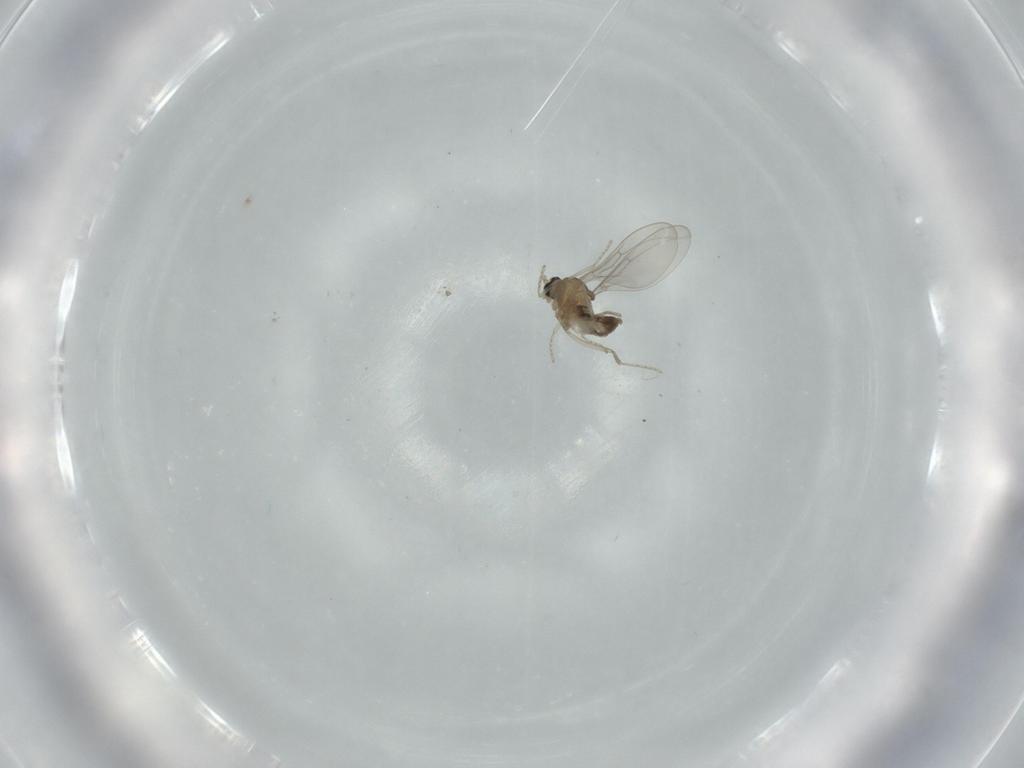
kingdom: Animalia
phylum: Arthropoda
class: Insecta
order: Diptera
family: Cecidomyiidae
